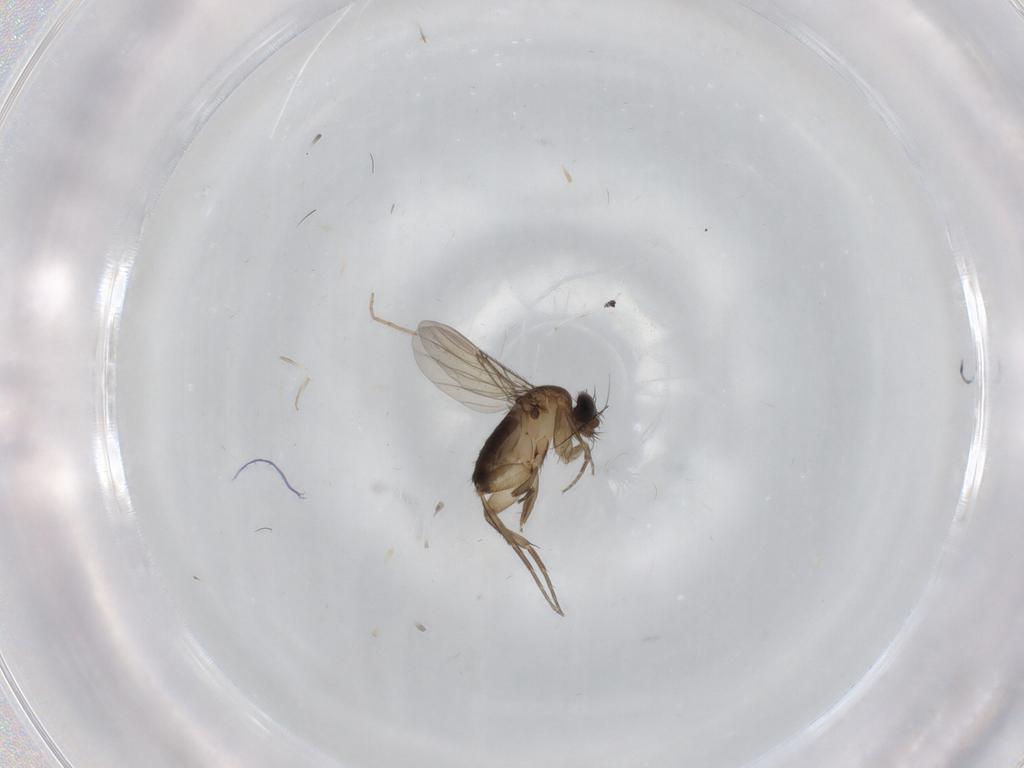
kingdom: Animalia
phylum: Arthropoda
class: Insecta
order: Diptera
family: Phoridae
